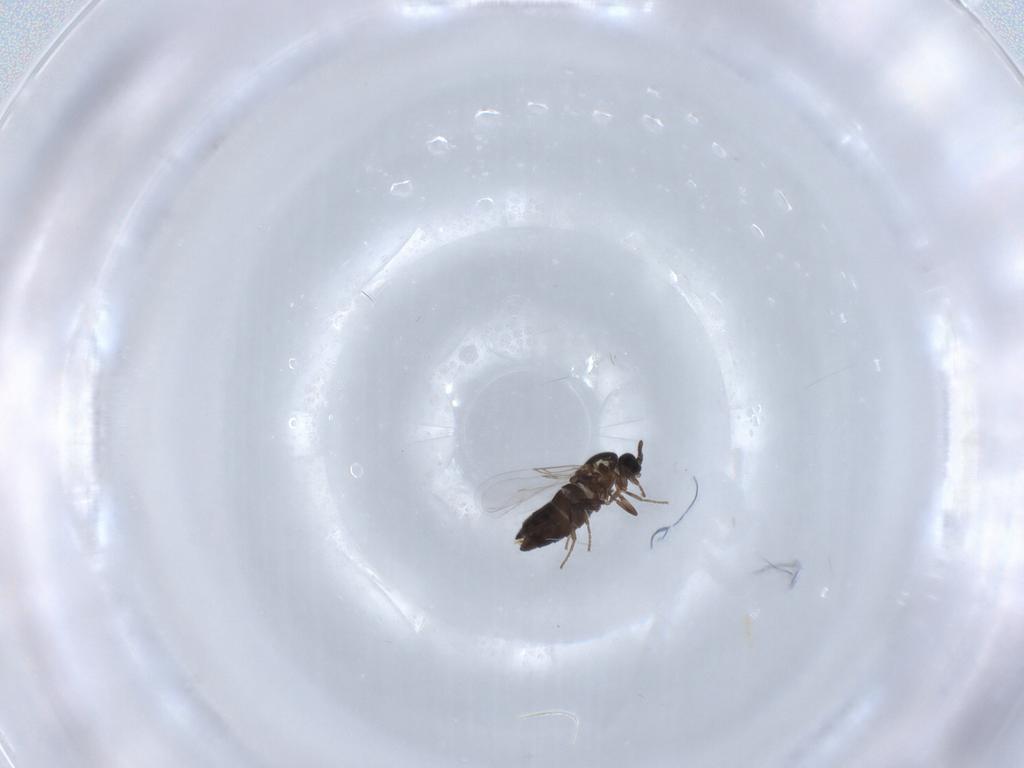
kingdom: Animalia
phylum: Arthropoda
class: Insecta
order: Diptera
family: Scatopsidae
